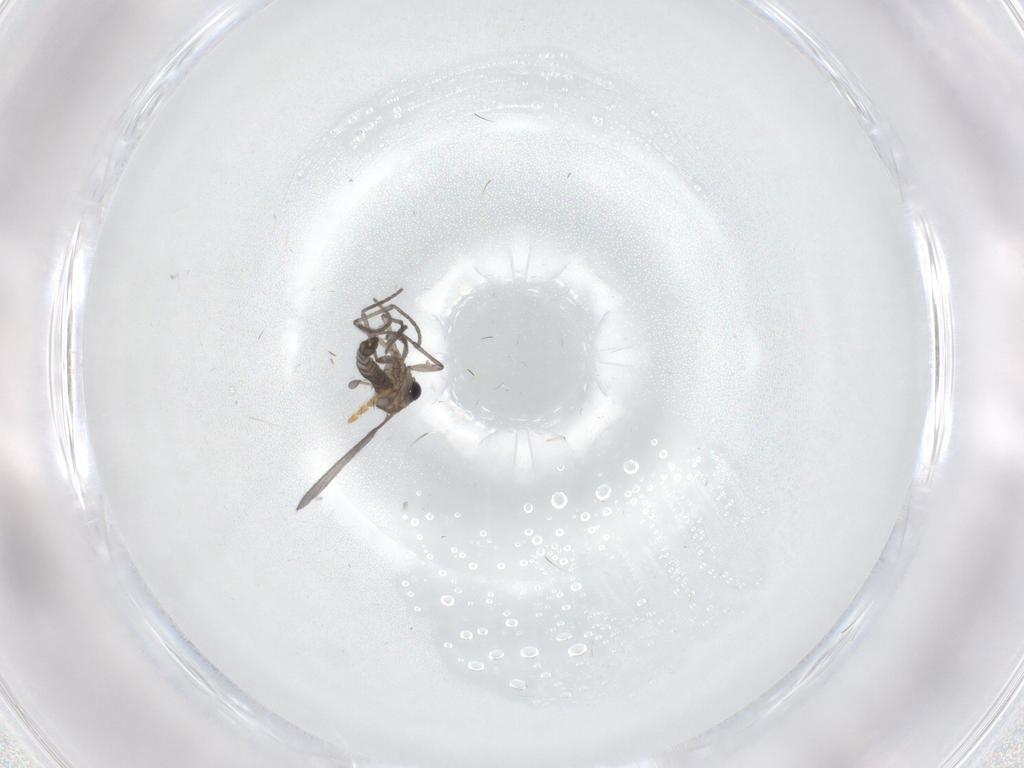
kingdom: Animalia
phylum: Arthropoda
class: Insecta
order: Diptera
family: Sciaridae
